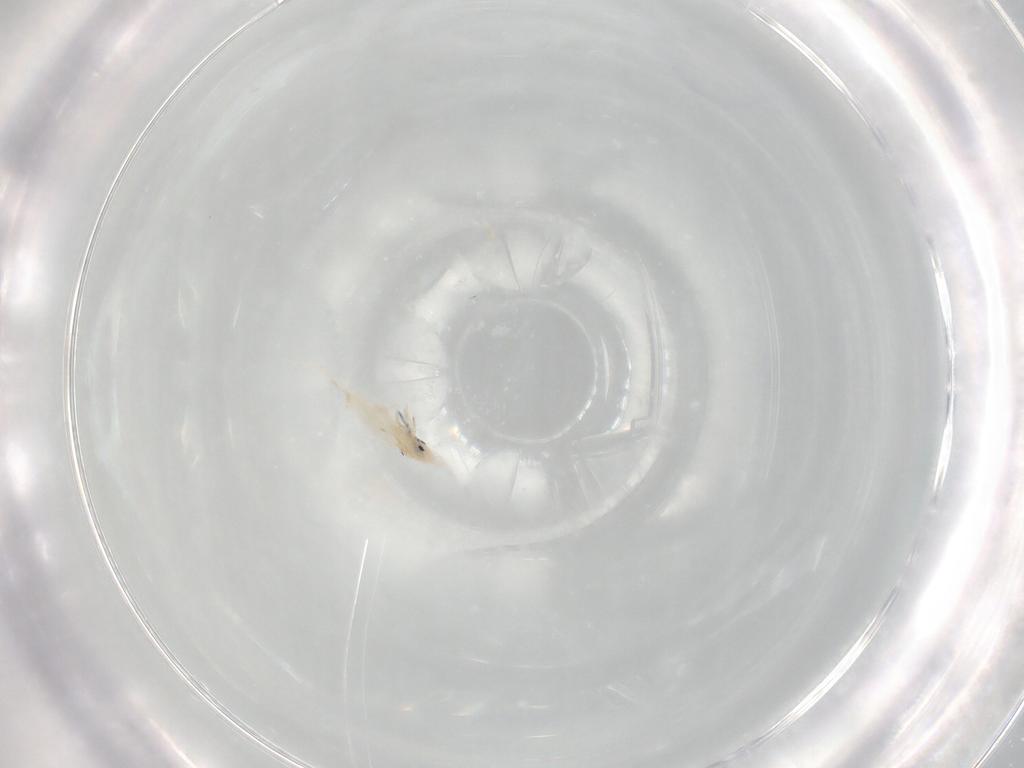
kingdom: Animalia
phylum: Arthropoda
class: Collembola
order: Entomobryomorpha
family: Entomobryidae
